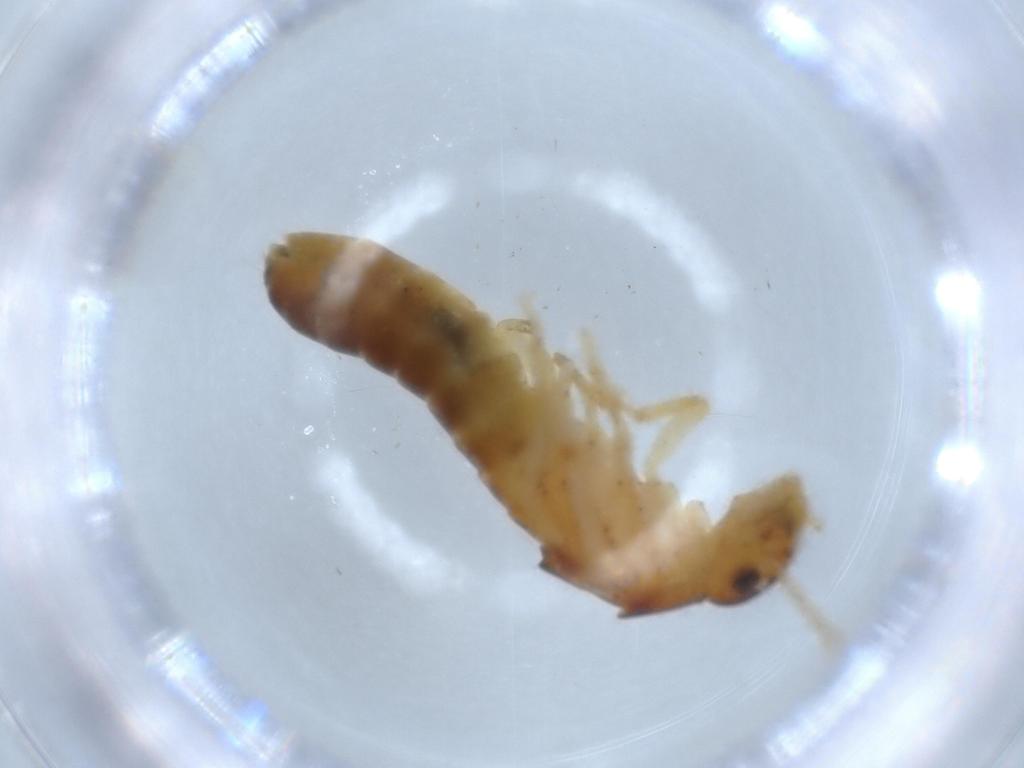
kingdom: Animalia
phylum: Arthropoda
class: Insecta
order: Blattodea
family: Kalotermitidae
